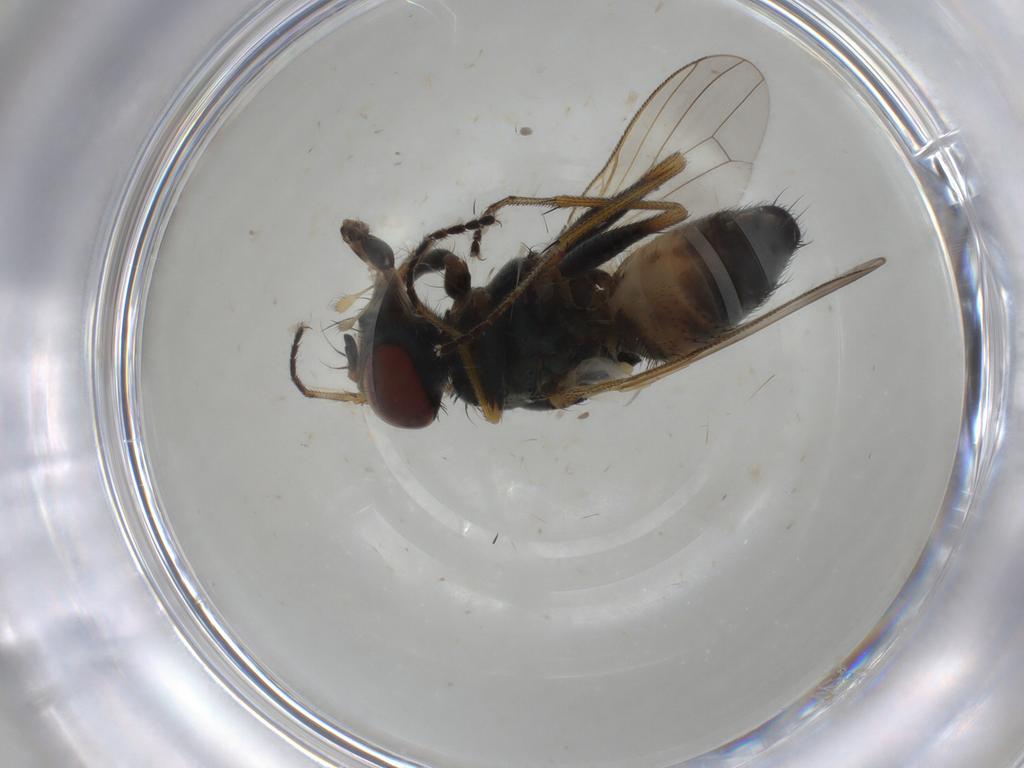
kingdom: Animalia
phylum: Arthropoda
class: Insecta
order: Diptera
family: Muscidae
